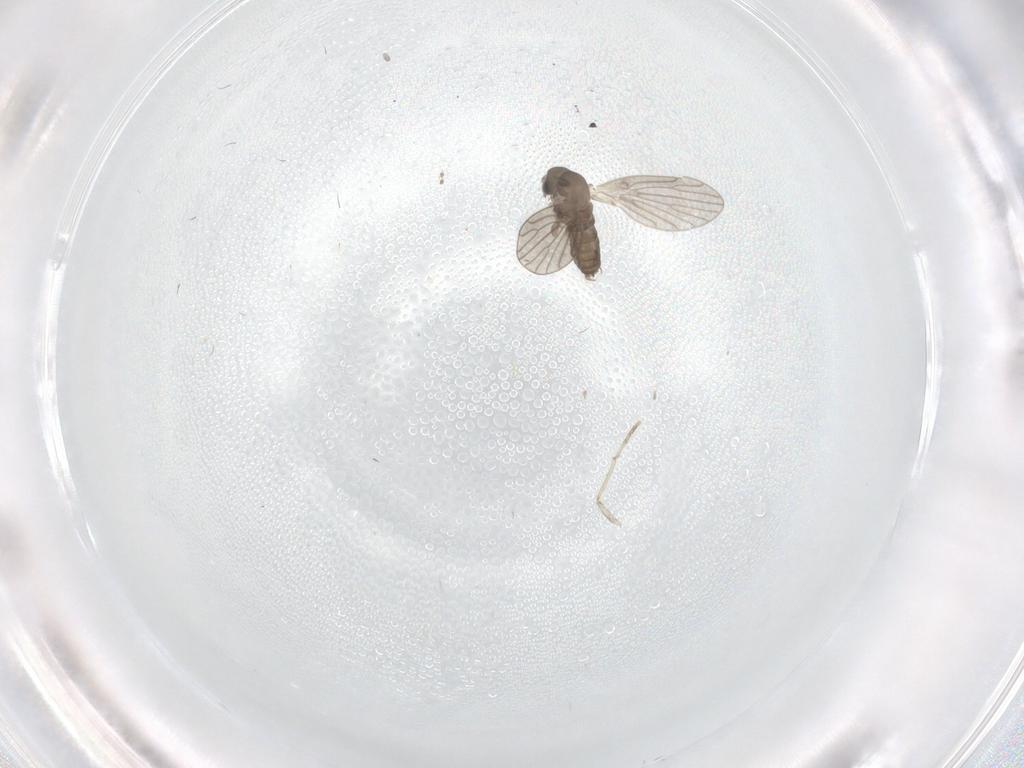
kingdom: Animalia
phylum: Arthropoda
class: Insecta
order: Diptera
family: Psychodidae
